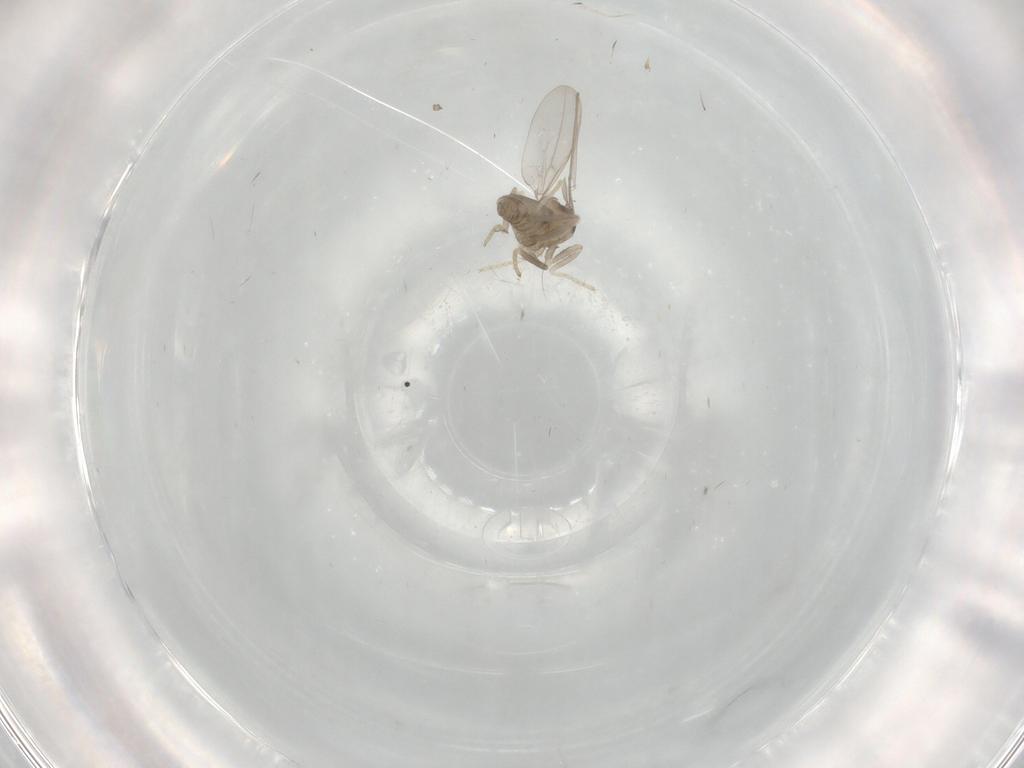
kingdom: Animalia
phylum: Arthropoda
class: Insecta
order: Diptera
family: Cecidomyiidae
